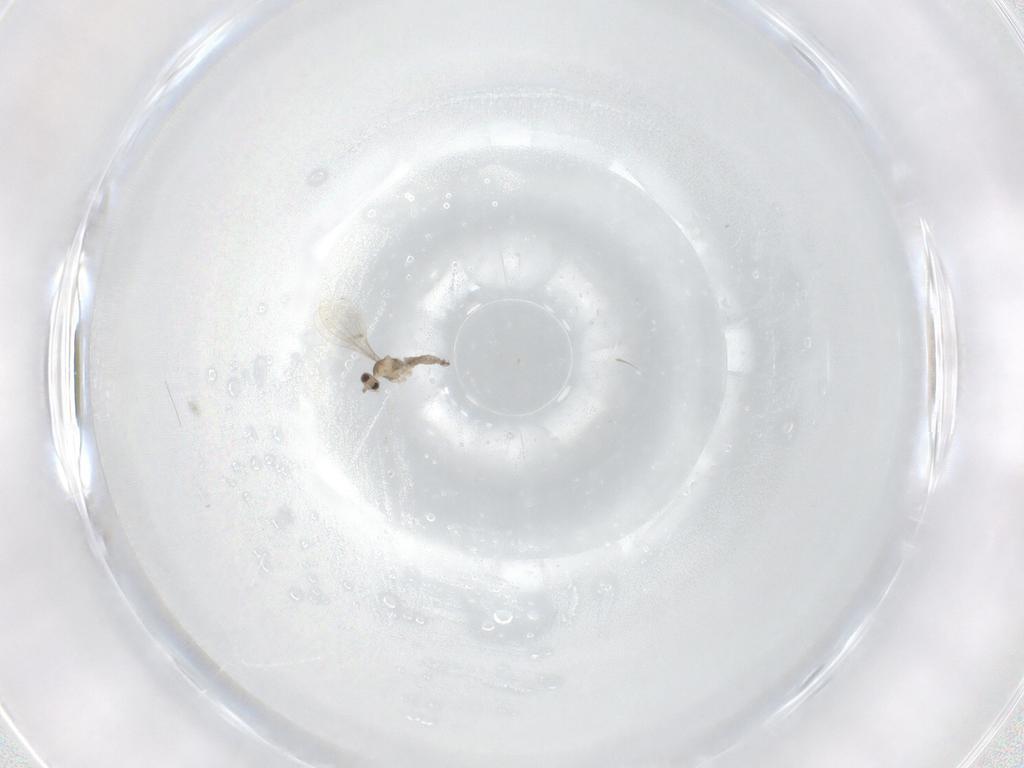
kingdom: Animalia
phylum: Arthropoda
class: Insecta
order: Diptera
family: Cecidomyiidae
